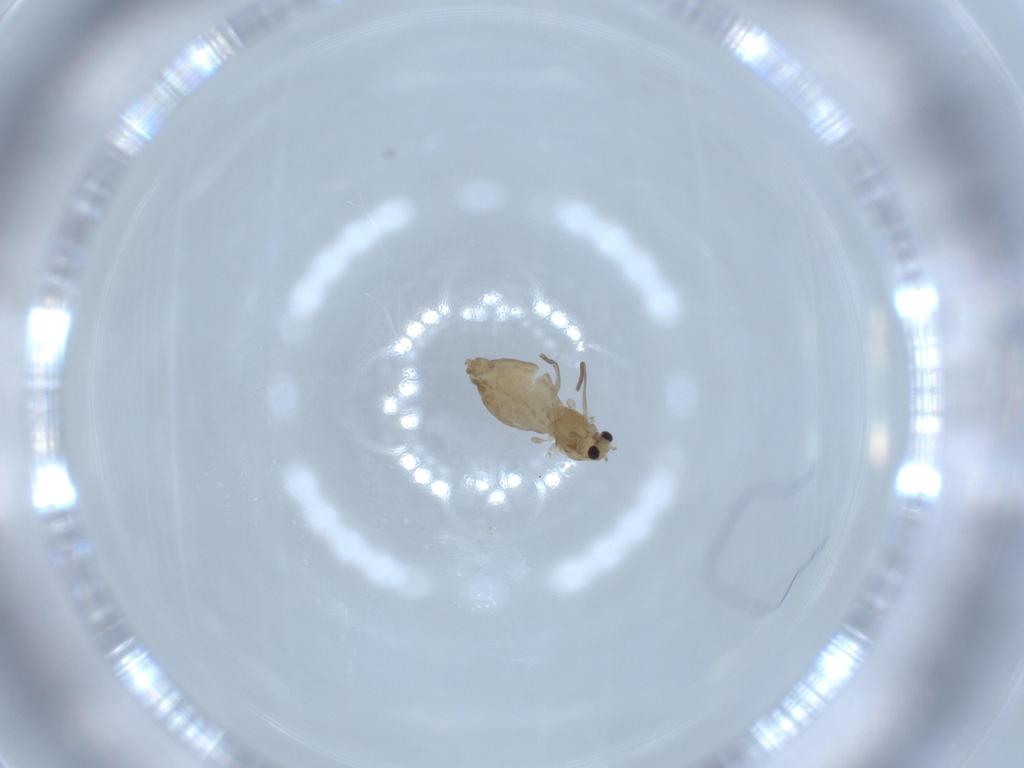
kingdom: Animalia
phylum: Arthropoda
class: Insecta
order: Diptera
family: Chironomidae
